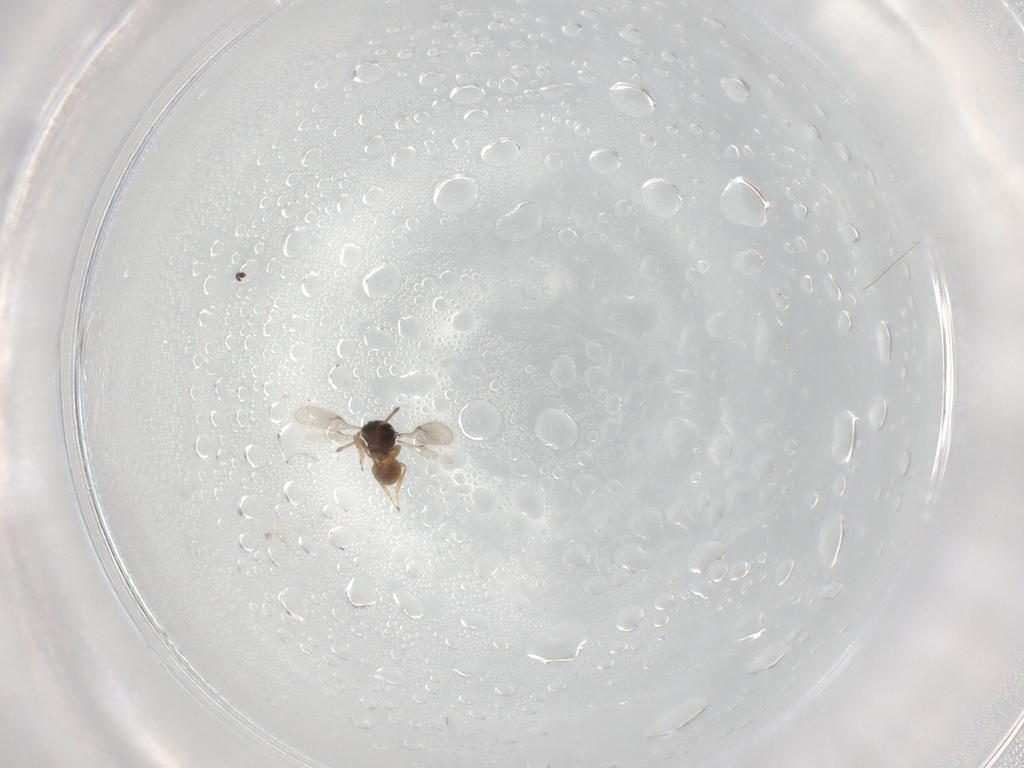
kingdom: Animalia
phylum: Arthropoda
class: Insecta
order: Hymenoptera
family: Scelionidae
